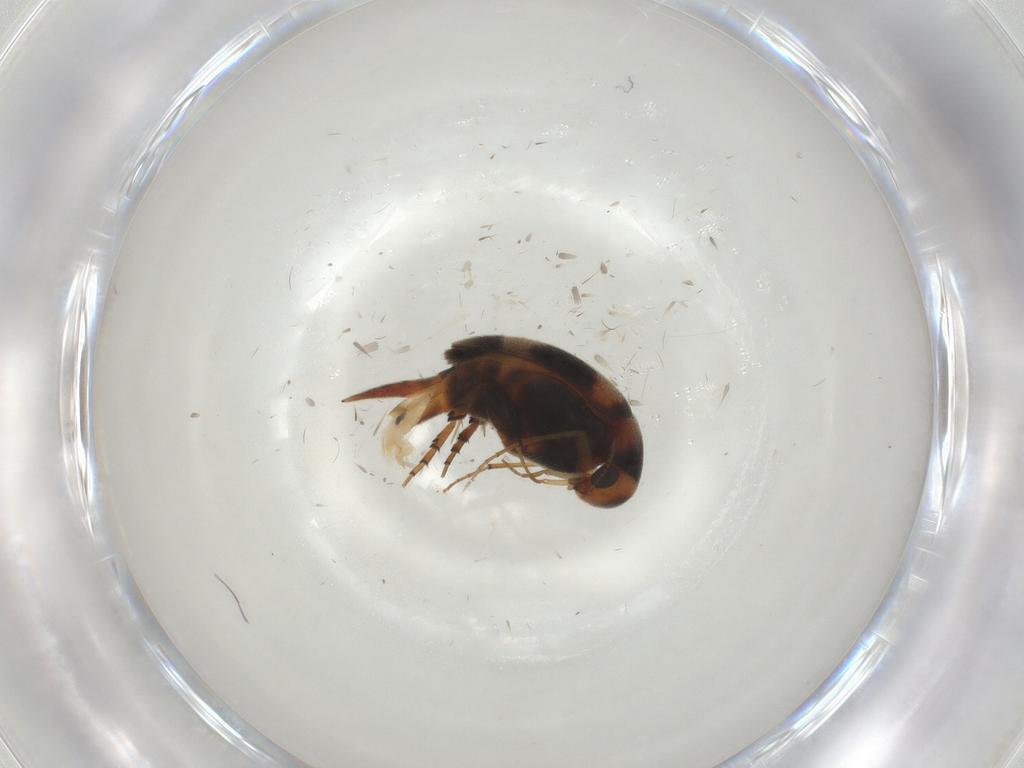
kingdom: Animalia
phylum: Arthropoda
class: Insecta
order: Coleoptera
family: Mordellidae
